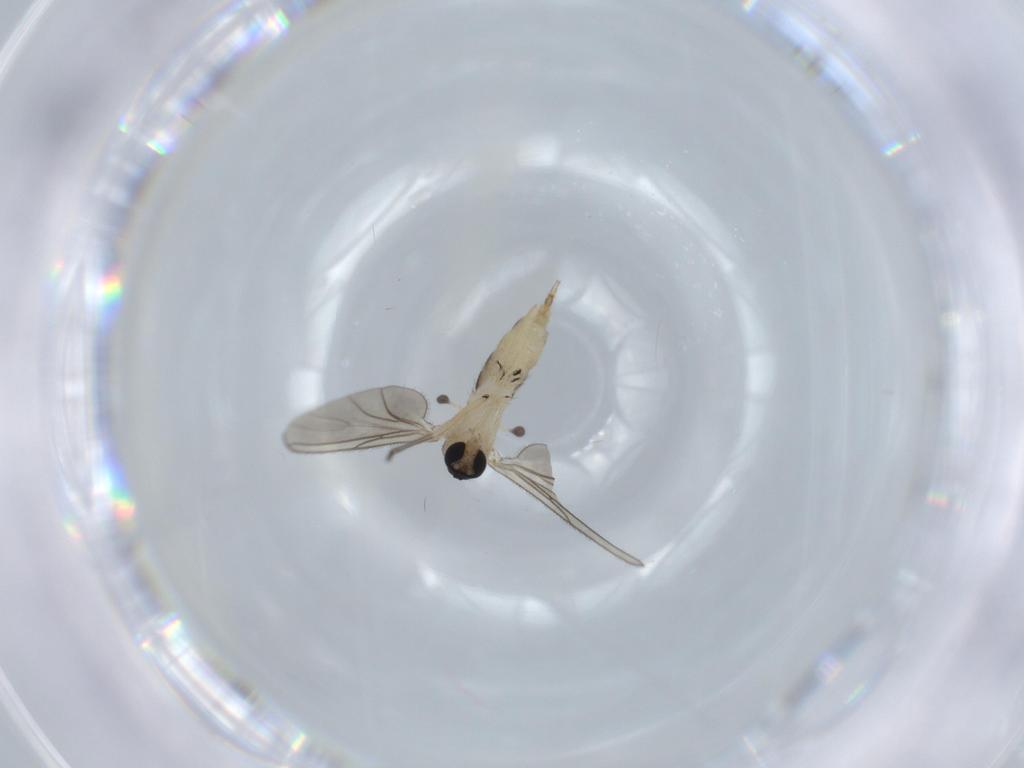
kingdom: Animalia
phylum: Arthropoda
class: Insecta
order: Diptera
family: Sciaridae
